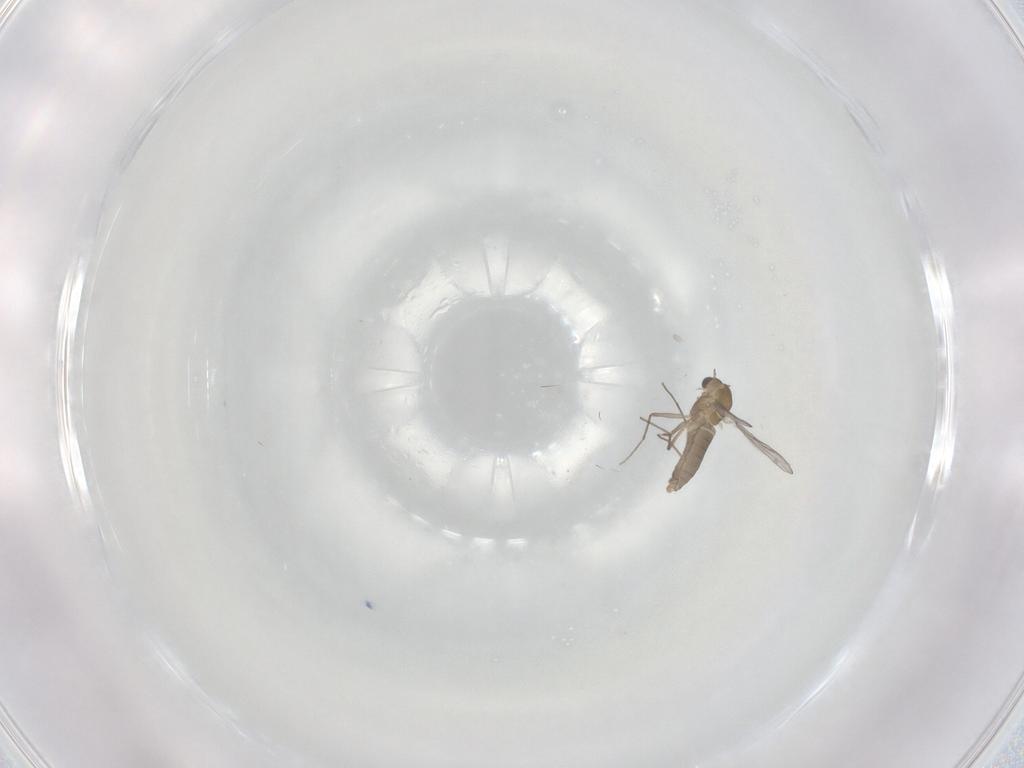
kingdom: Animalia
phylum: Arthropoda
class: Insecta
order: Diptera
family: Chironomidae
